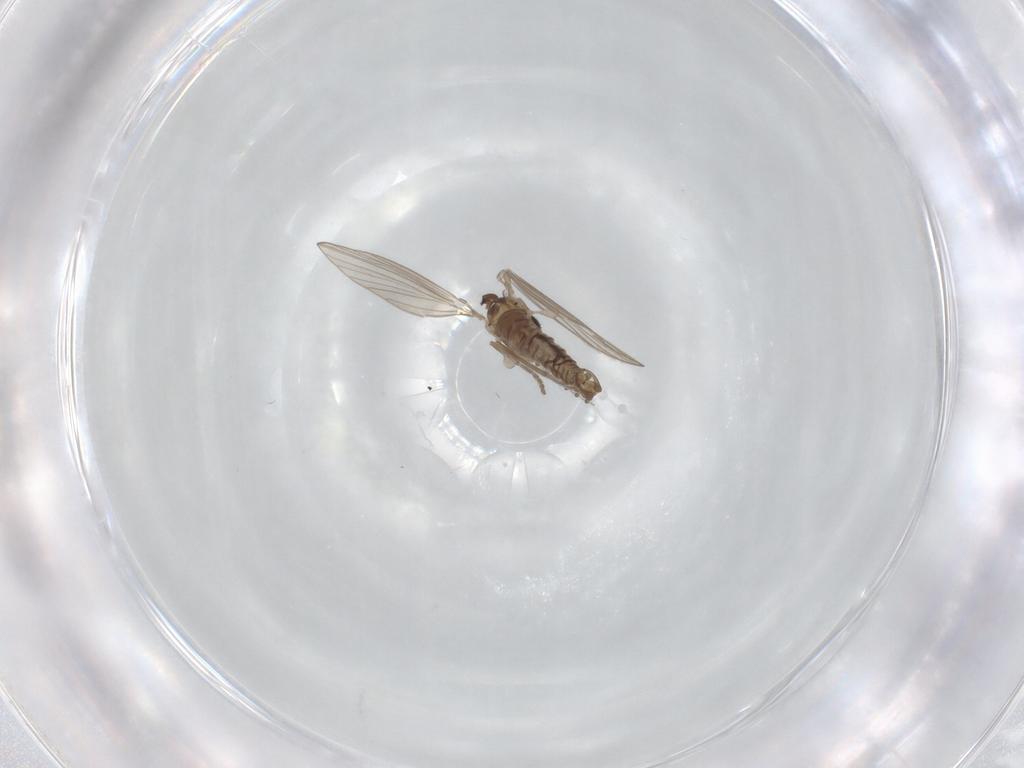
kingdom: Animalia
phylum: Arthropoda
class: Insecta
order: Diptera
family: Psychodidae
